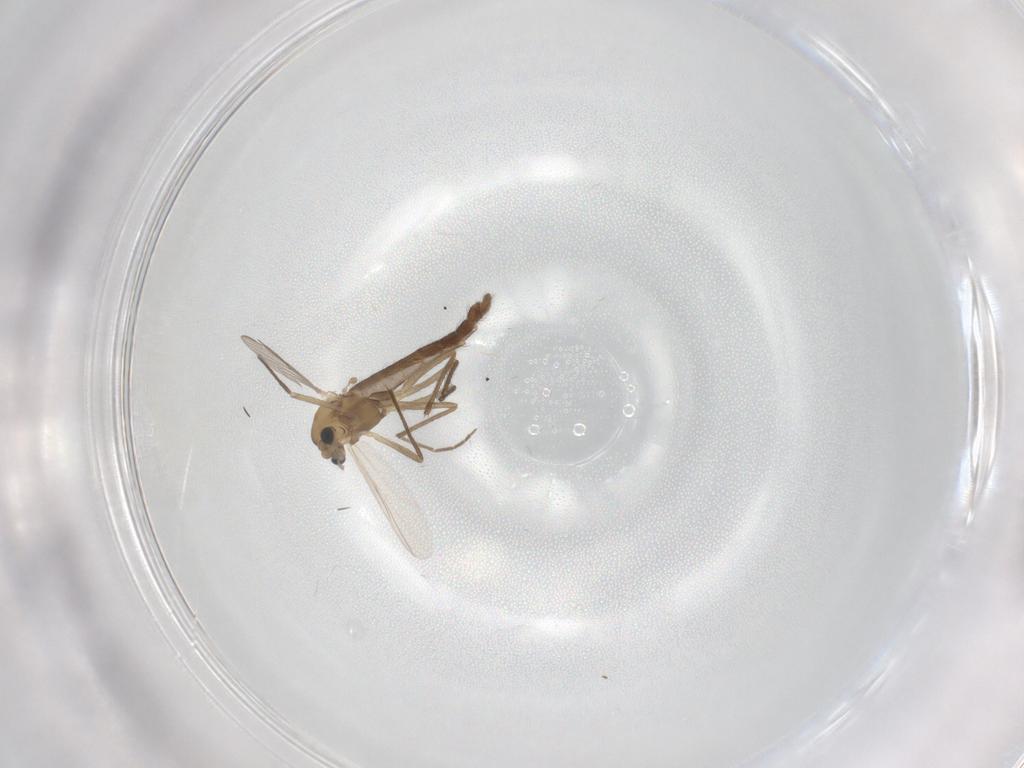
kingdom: Animalia
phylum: Arthropoda
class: Insecta
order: Diptera
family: Chironomidae
